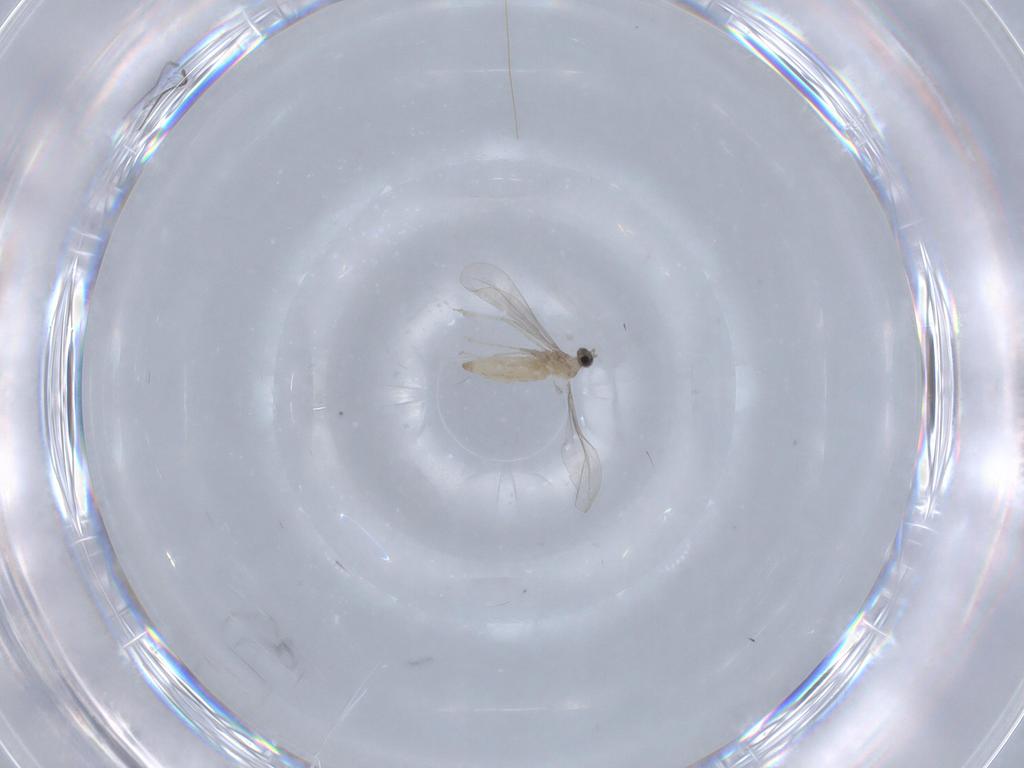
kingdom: Animalia
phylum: Arthropoda
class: Insecta
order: Diptera
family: Cecidomyiidae
